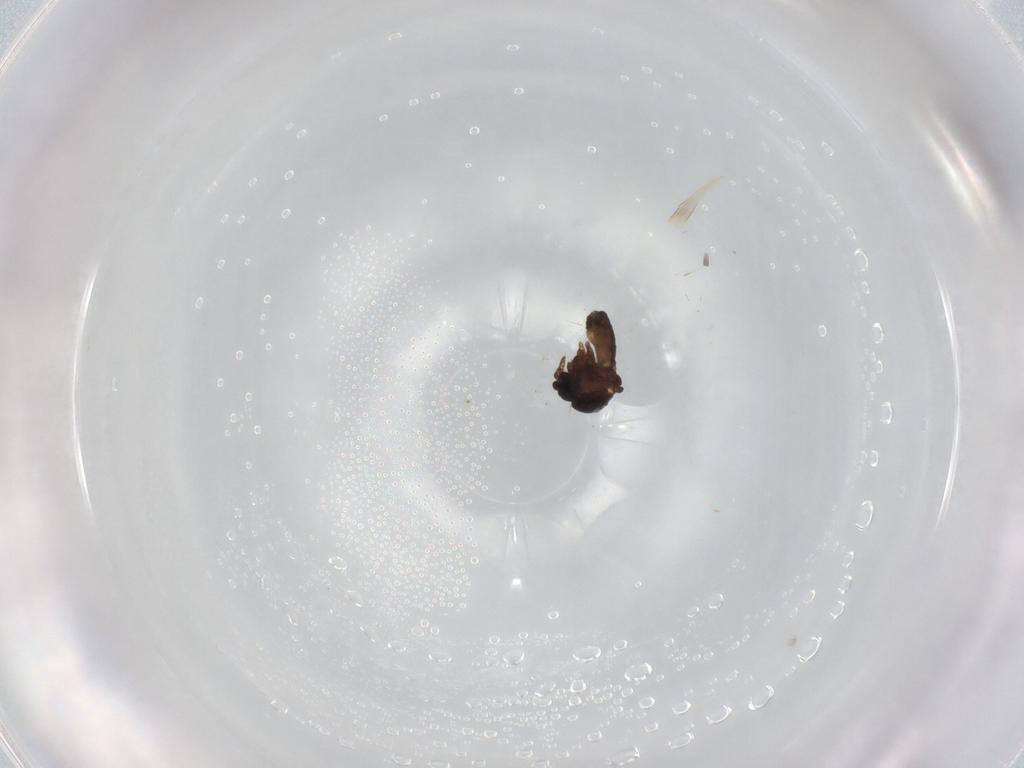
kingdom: Animalia
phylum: Arthropoda
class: Insecta
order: Diptera
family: Ceratopogonidae
